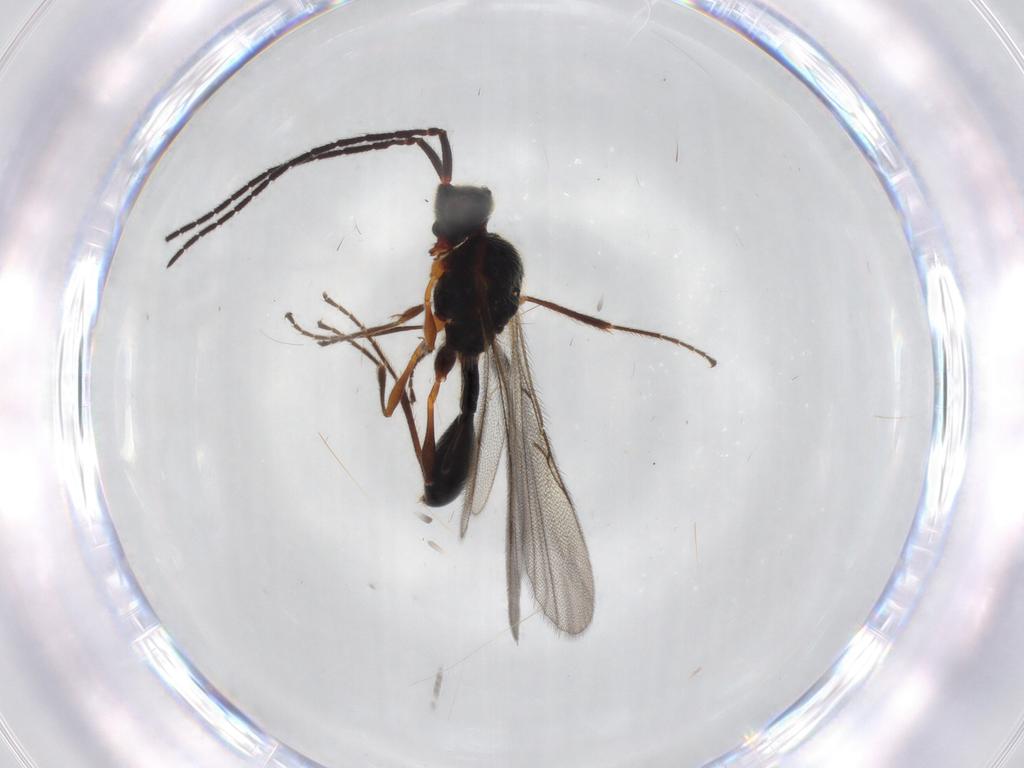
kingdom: Animalia
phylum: Arthropoda
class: Insecta
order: Hymenoptera
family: Diapriidae
